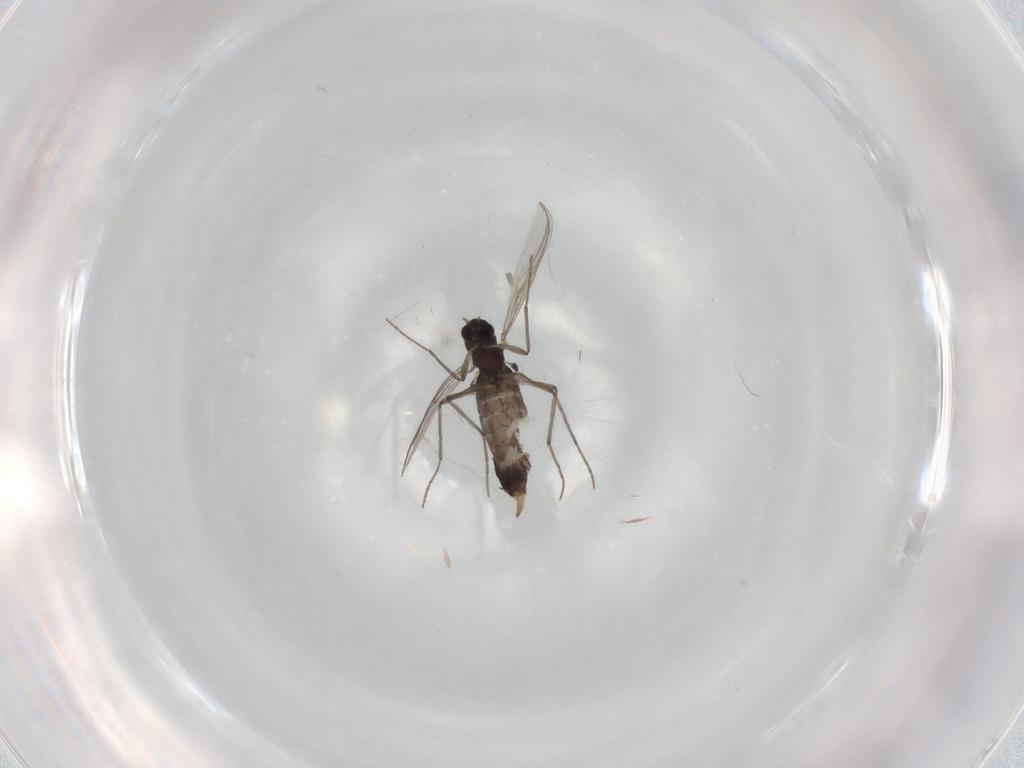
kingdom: Animalia
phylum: Arthropoda
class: Insecta
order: Diptera
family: Chironomidae
